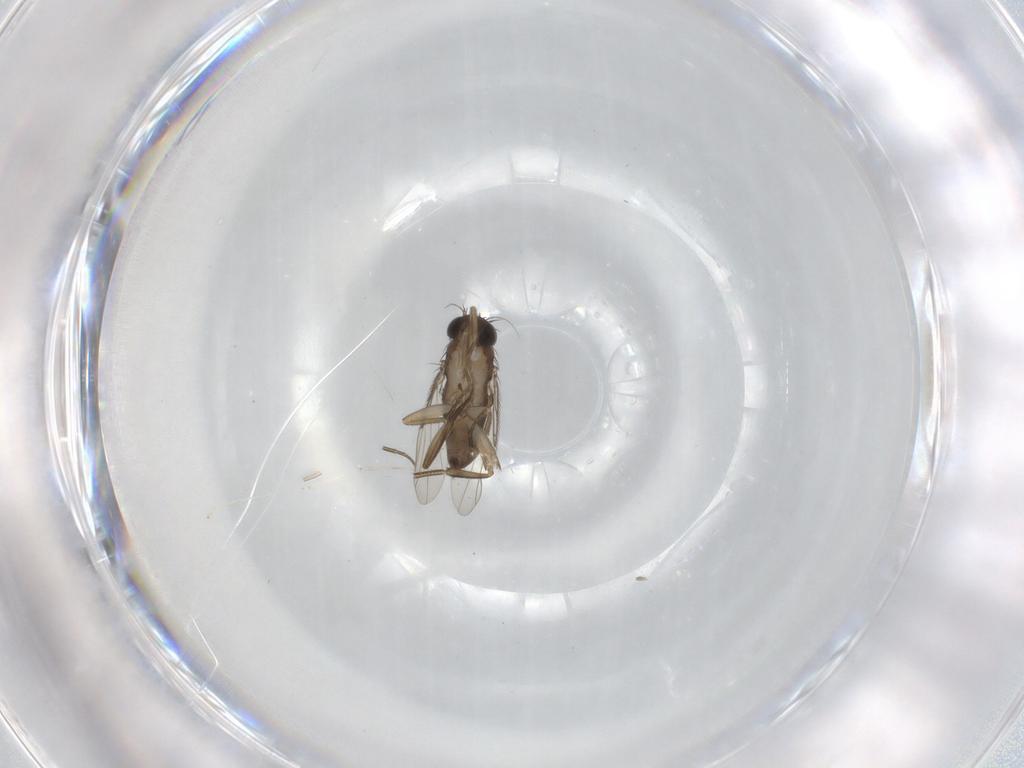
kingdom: Animalia
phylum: Arthropoda
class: Insecta
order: Diptera
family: Phoridae
